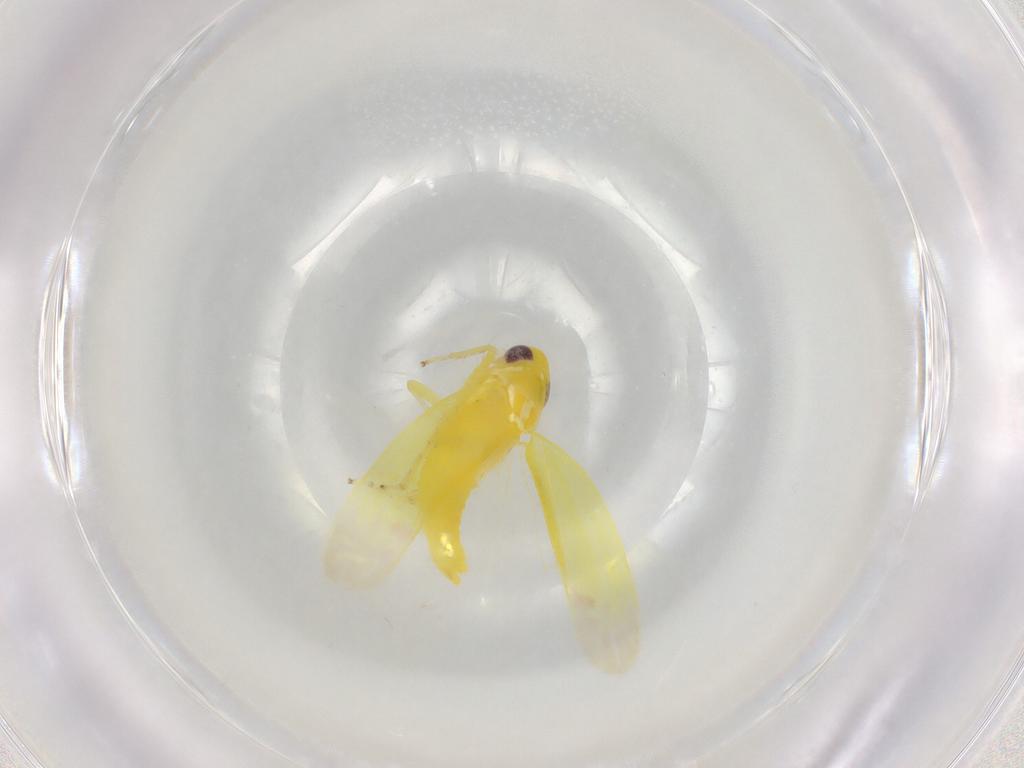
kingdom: Animalia
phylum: Arthropoda
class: Insecta
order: Hemiptera
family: Cicadellidae
